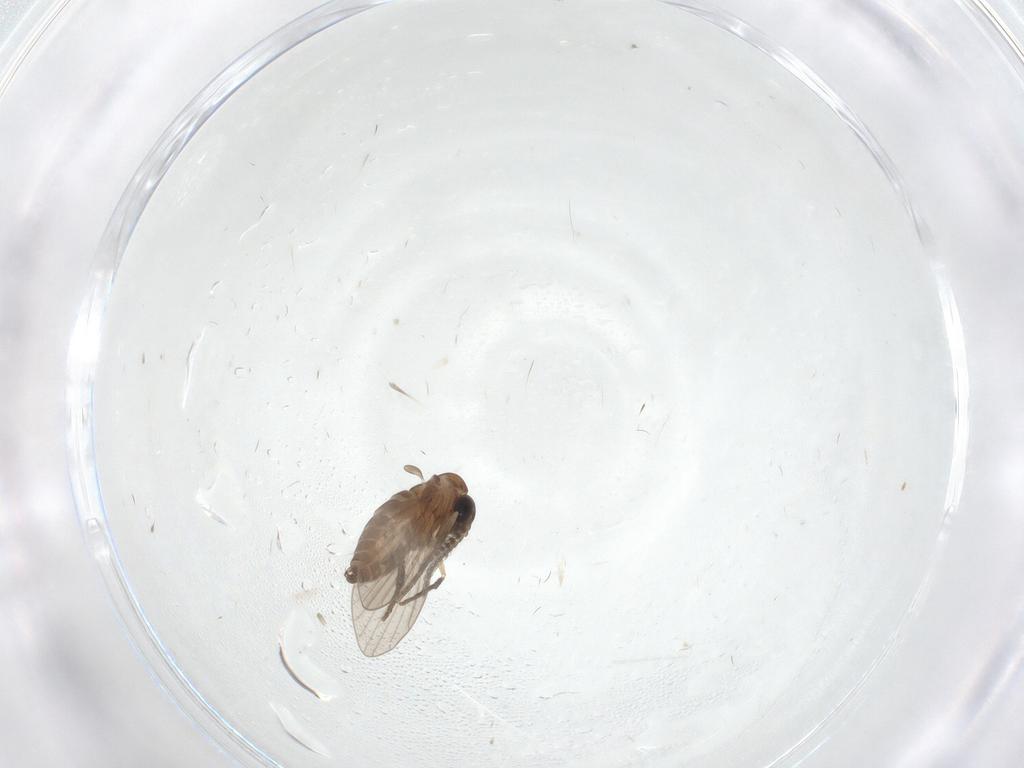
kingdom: Animalia
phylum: Arthropoda
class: Insecta
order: Diptera
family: Phoridae
